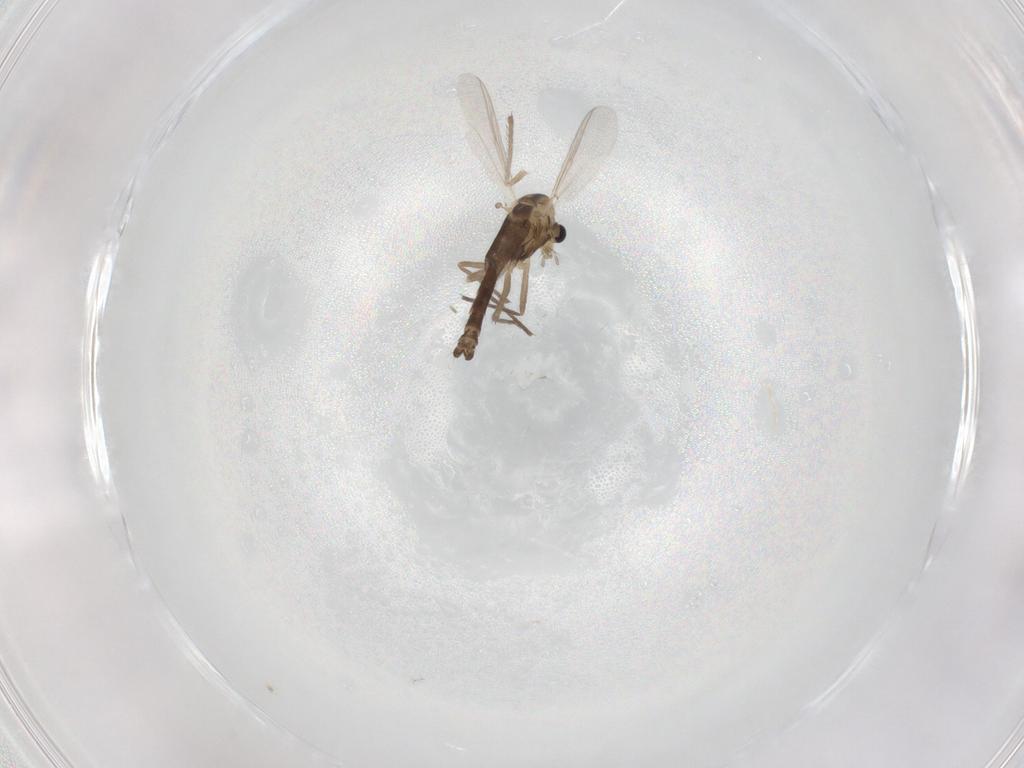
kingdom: Animalia
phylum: Arthropoda
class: Insecta
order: Diptera
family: Chironomidae
